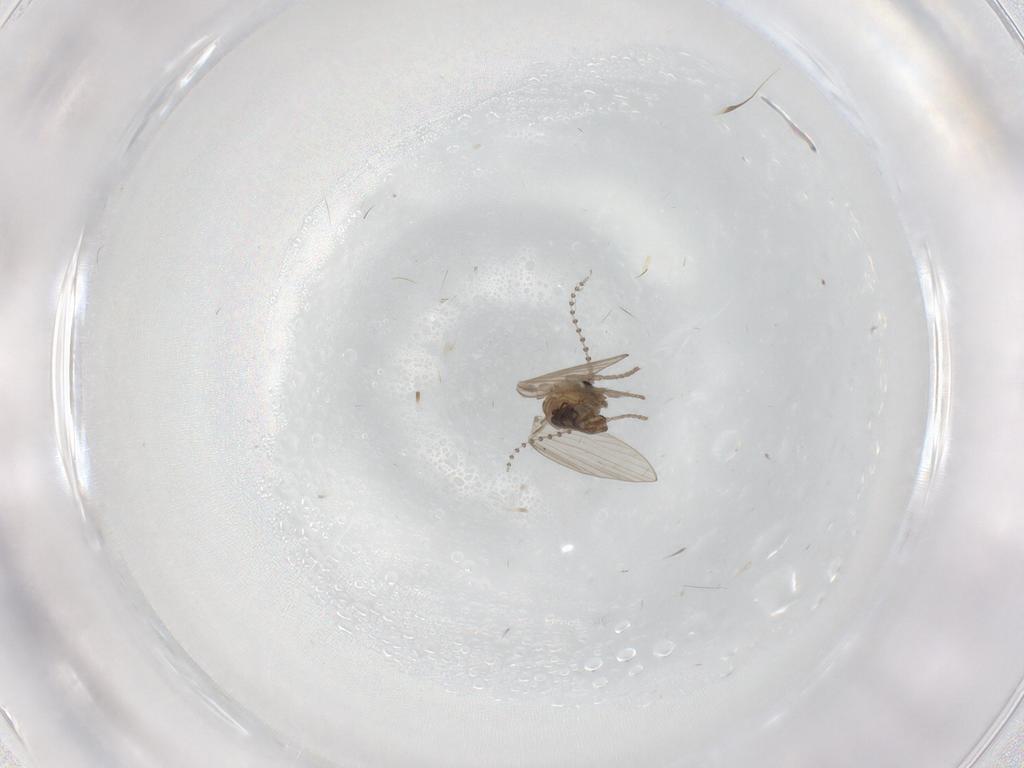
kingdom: Animalia
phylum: Arthropoda
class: Insecta
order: Diptera
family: Psychodidae
